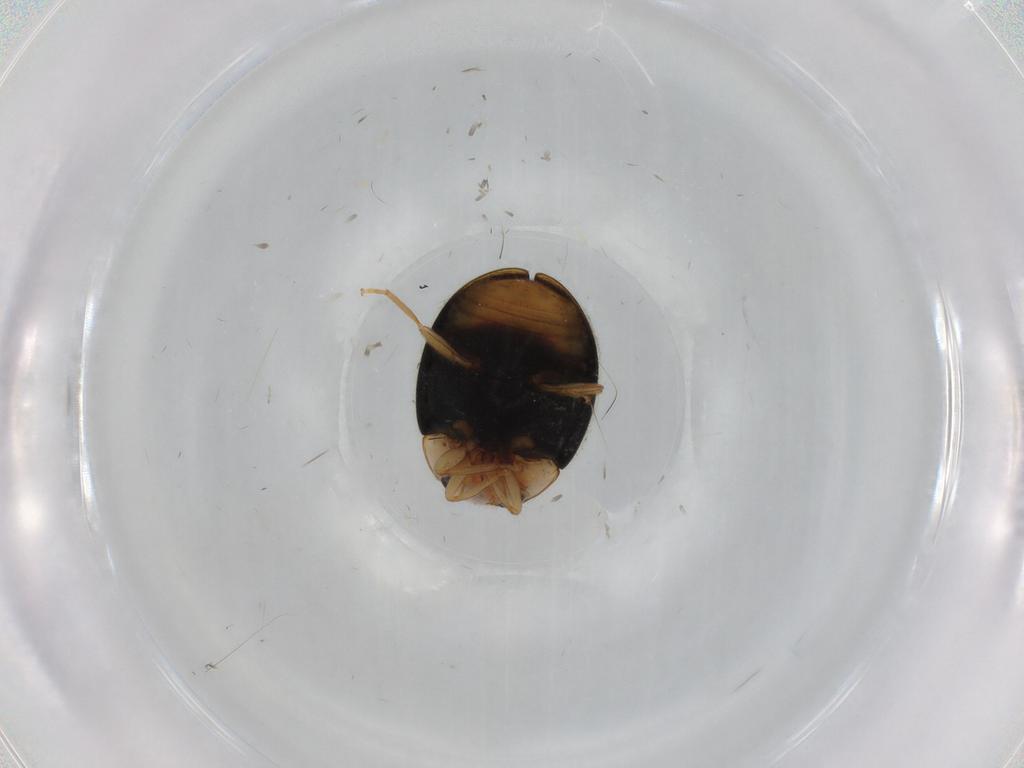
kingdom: Animalia
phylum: Arthropoda
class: Insecta
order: Coleoptera
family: Coccinellidae
